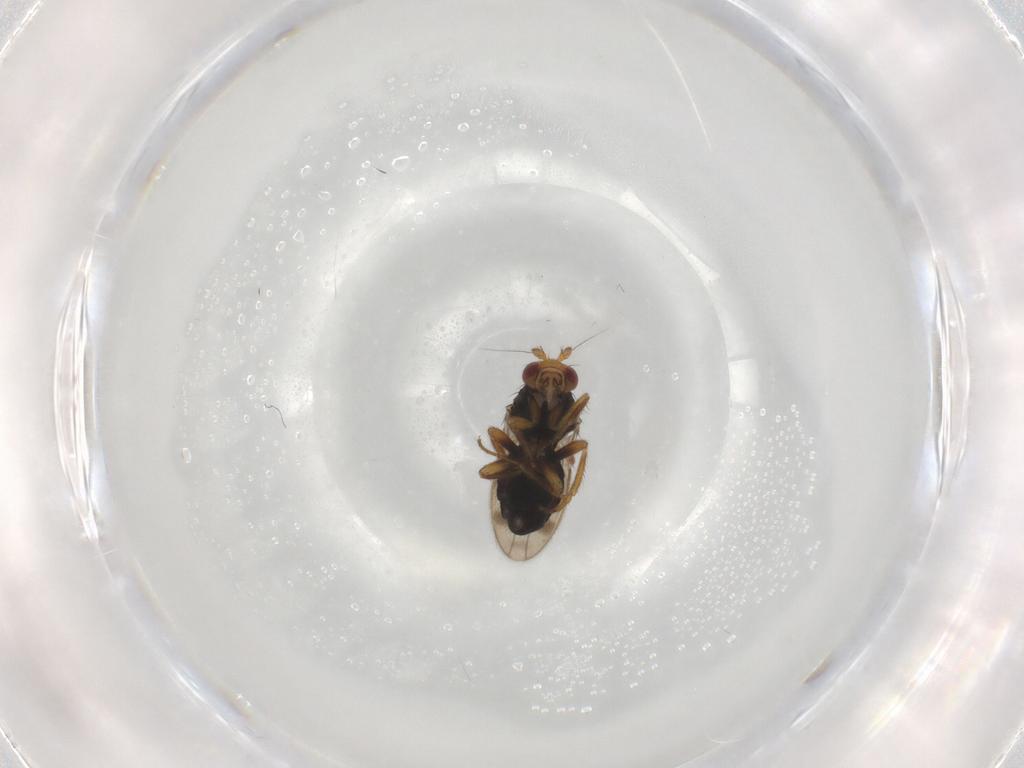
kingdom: Animalia
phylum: Arthropoda
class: Insecta
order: Diptera
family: Sphaeroceridae
